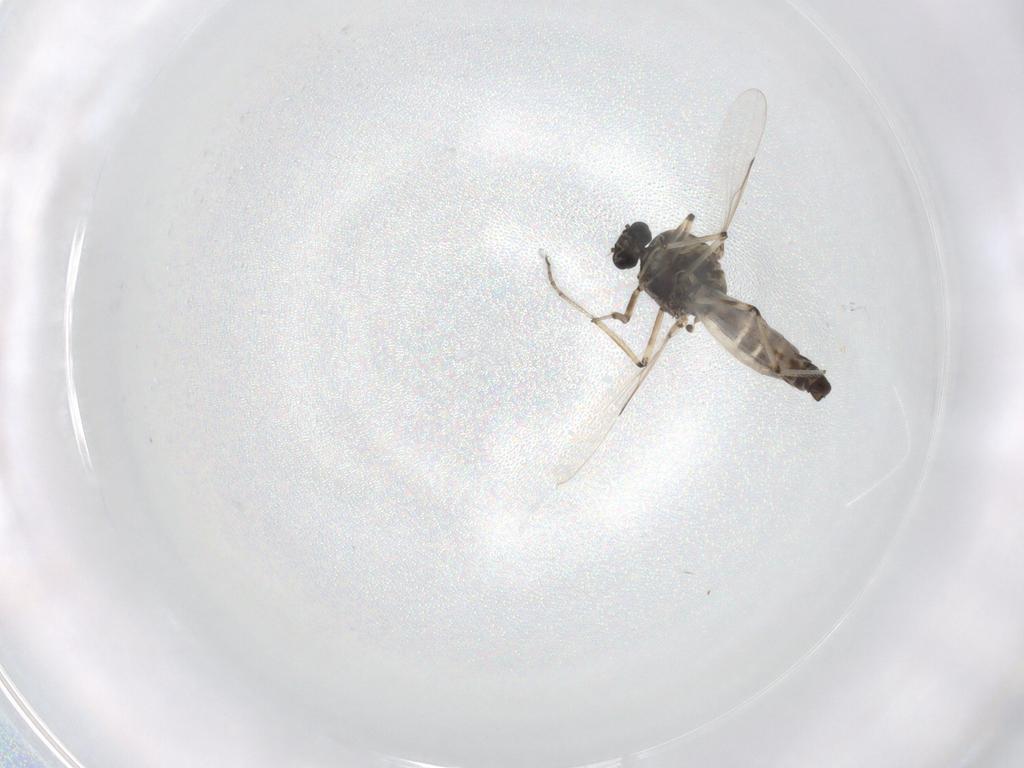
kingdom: Animalia
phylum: Arthropoda
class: Insecta
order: Diptera
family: Ceratopogonidae
